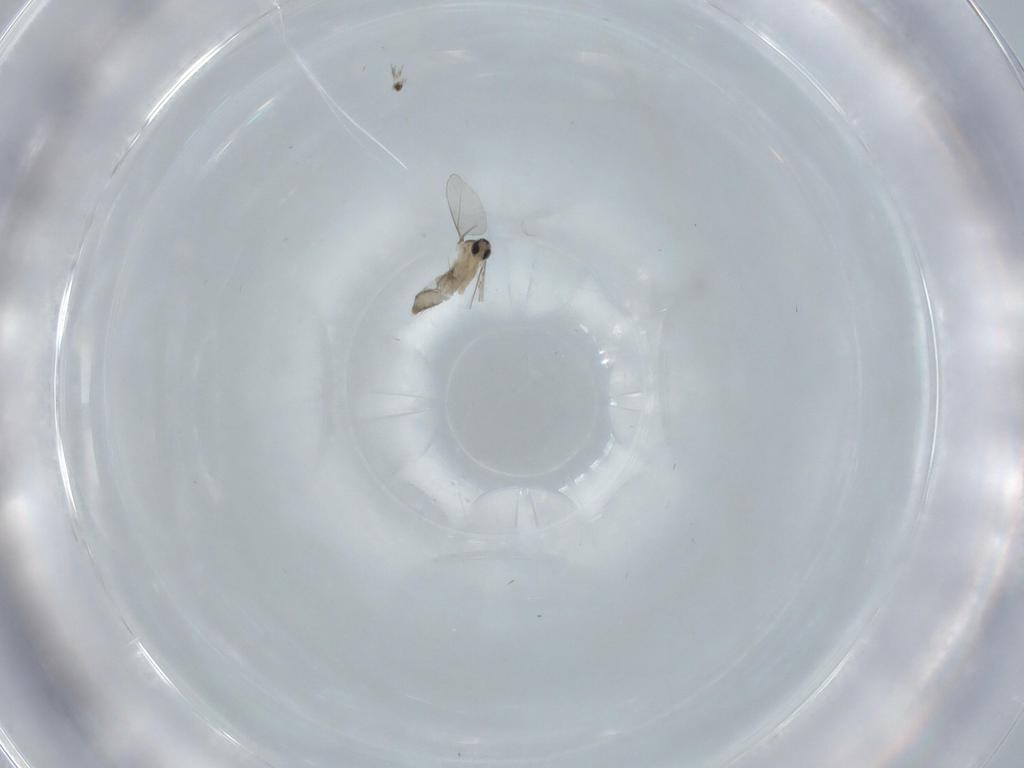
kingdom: Animalia
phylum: Arthropoda
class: Insecta
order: Diptera
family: Cecidomyiidae
